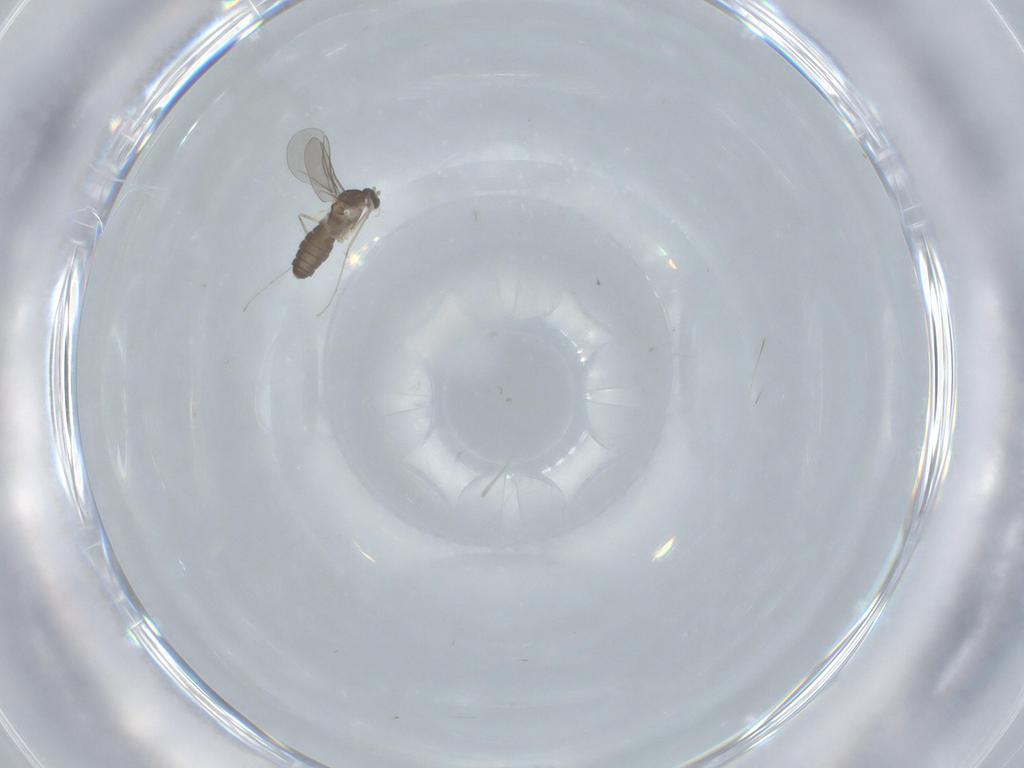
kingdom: Animalia
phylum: Arthropoda
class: Insecta
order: Diptera
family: Cecidomyiidae
